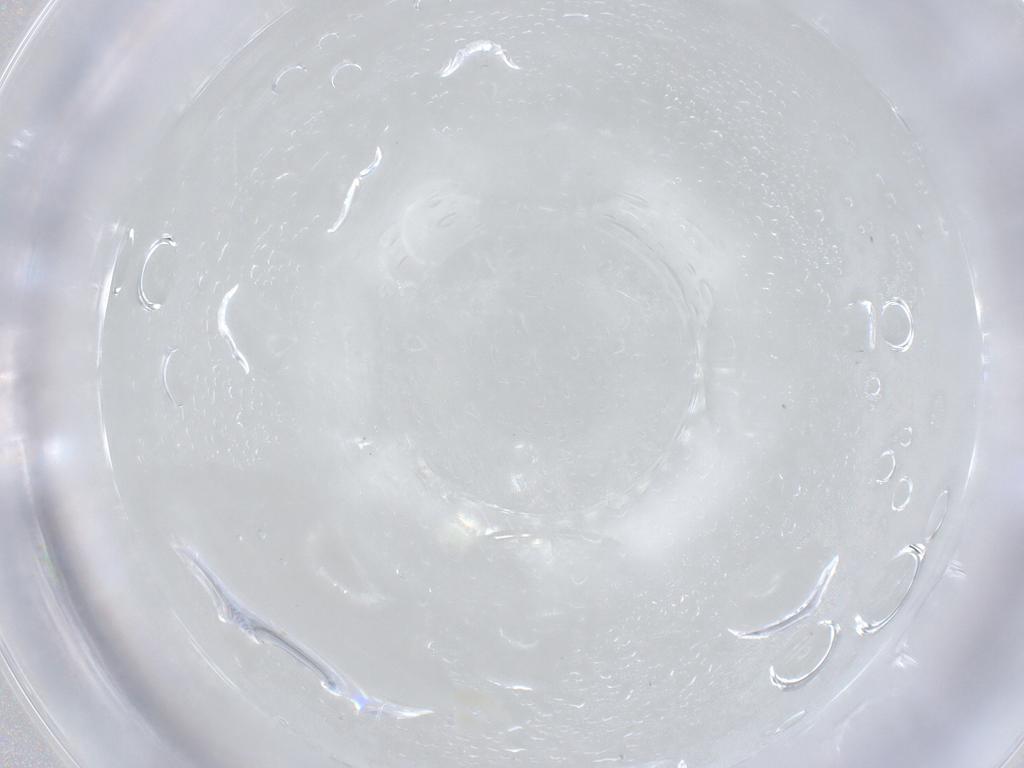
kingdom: Animalia
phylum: Arthropoda
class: Arachnida
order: Trombidiformes
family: Eupodidae
